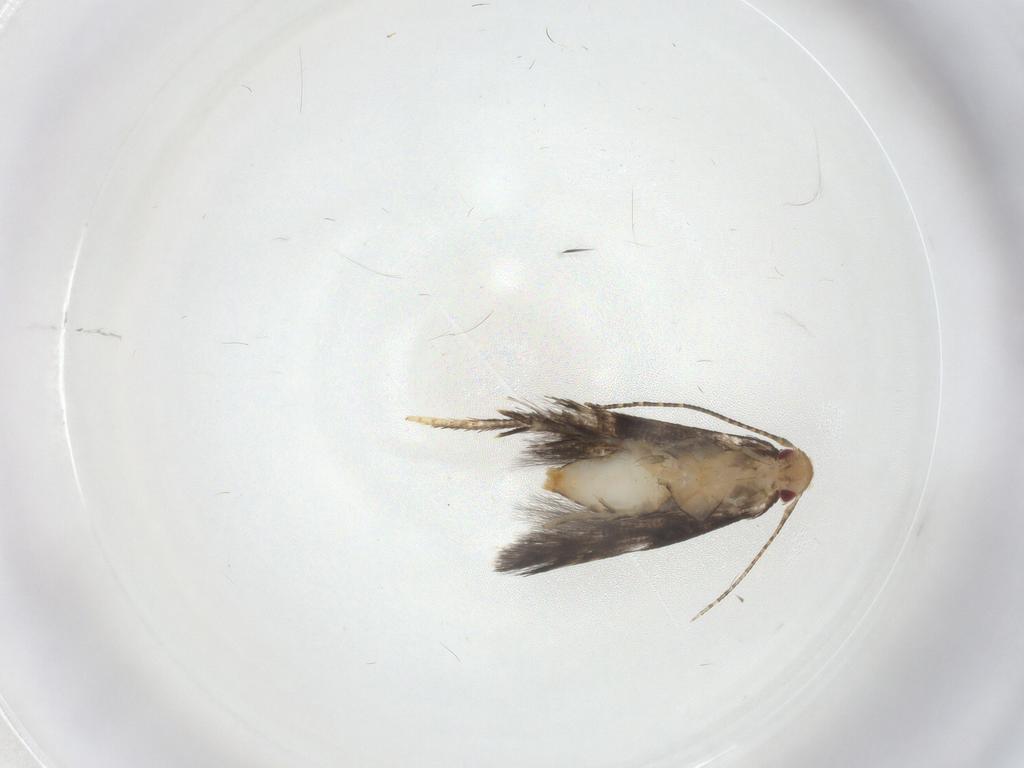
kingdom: Animalia
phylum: Arthropoda
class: Insecta
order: Lepidoptera
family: Momphidae
